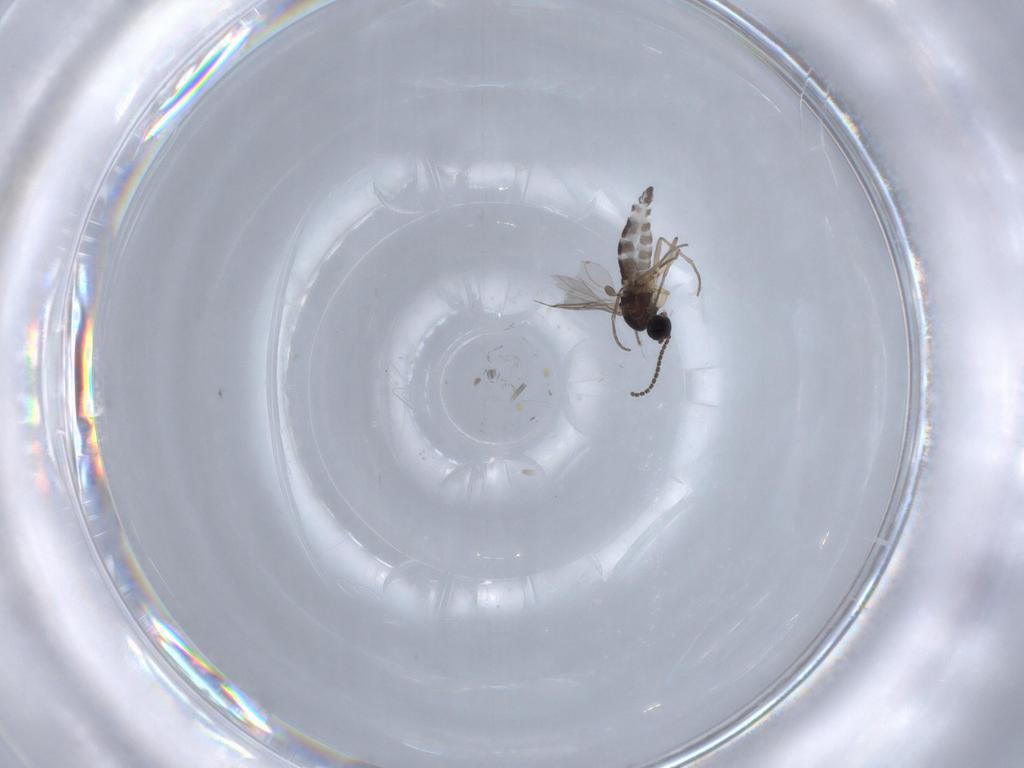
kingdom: Animalia
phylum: Arthropoda
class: Insecta
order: Diptera
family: Sciaridae
